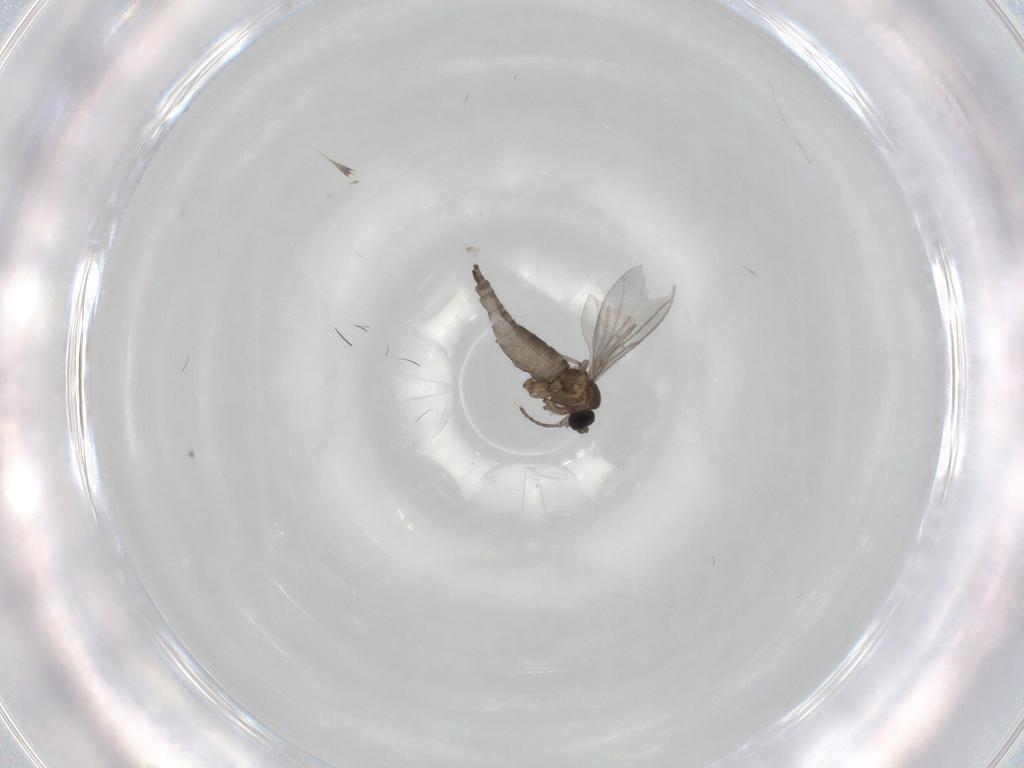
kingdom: Animalia
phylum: Arthropoda
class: Insecta
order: Diptera
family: Sciaridae
